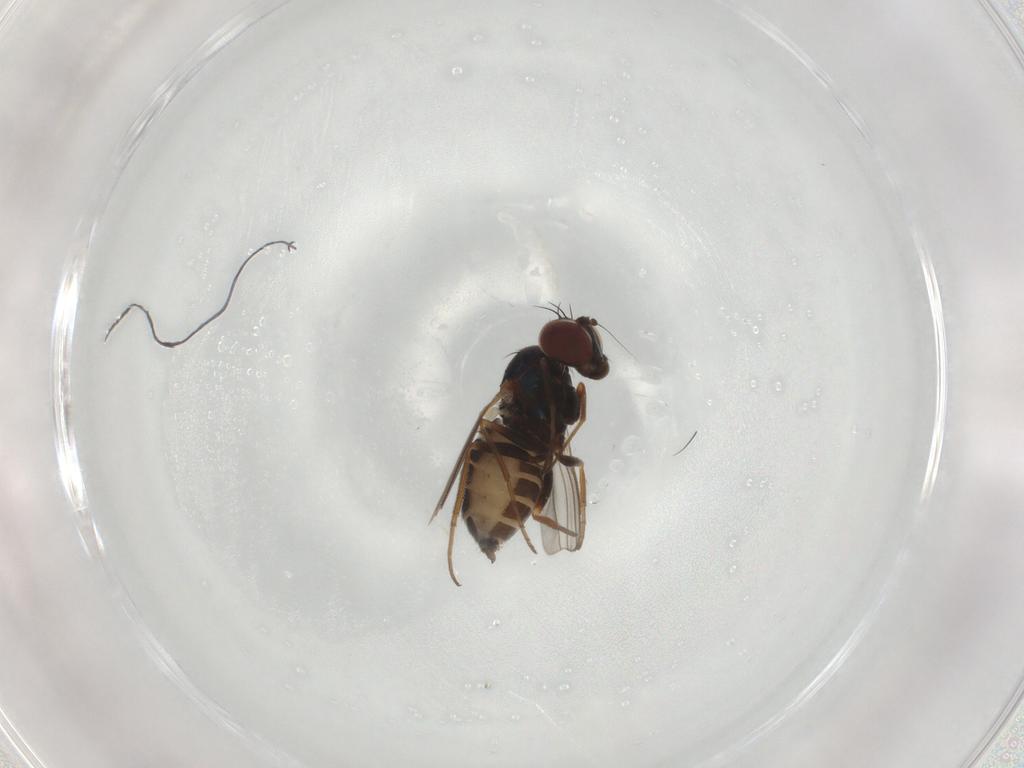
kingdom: Animalia
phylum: Arthropoda
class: Insecta
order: Diptera
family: Dolichopodidae
